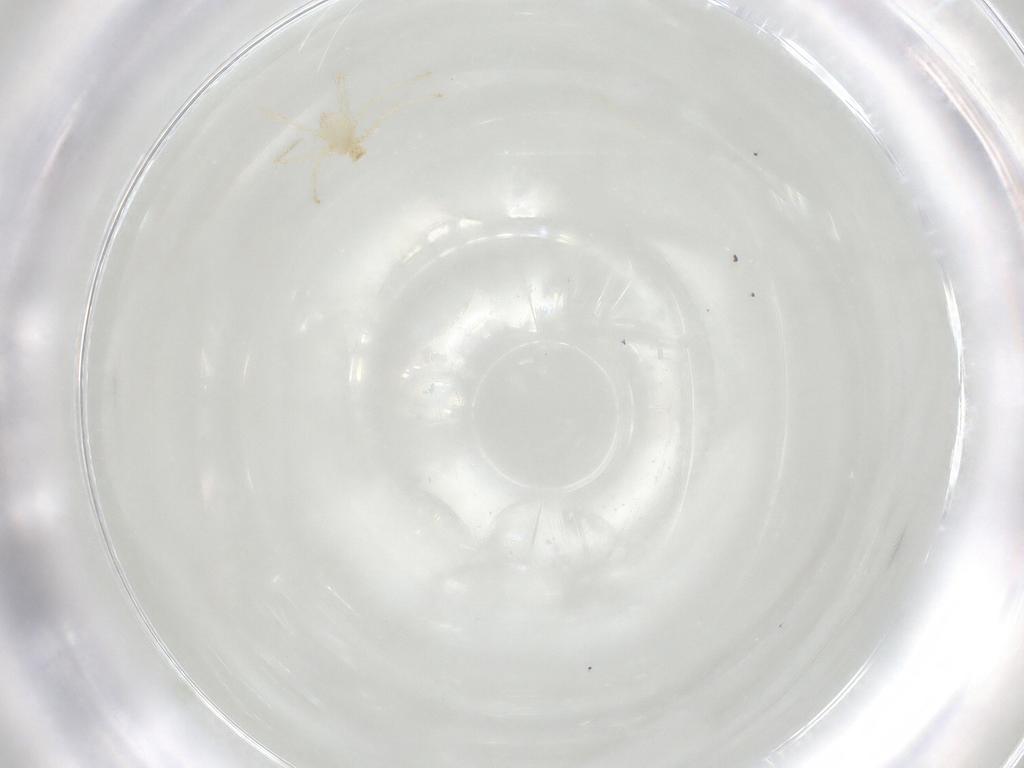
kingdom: Animalia
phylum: Arthropoda
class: Arachnida
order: Trombidiformes
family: Erythraeidae
